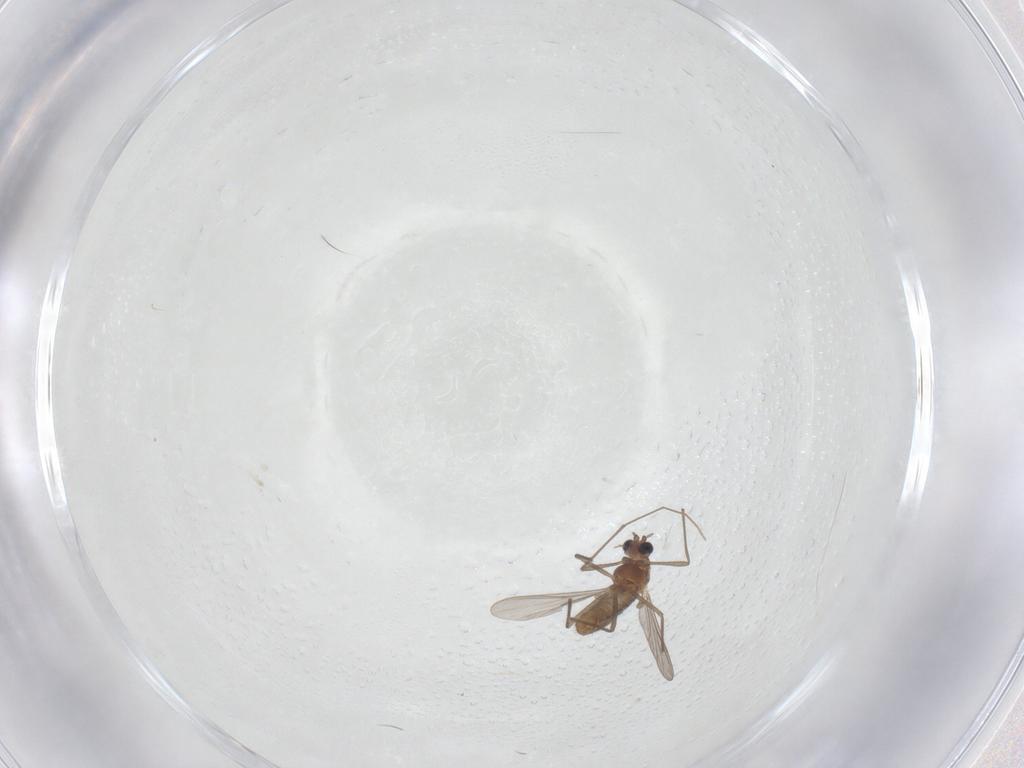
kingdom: Animalia
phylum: Arthropoda
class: Insecta
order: Diptera
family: Chironomidae
